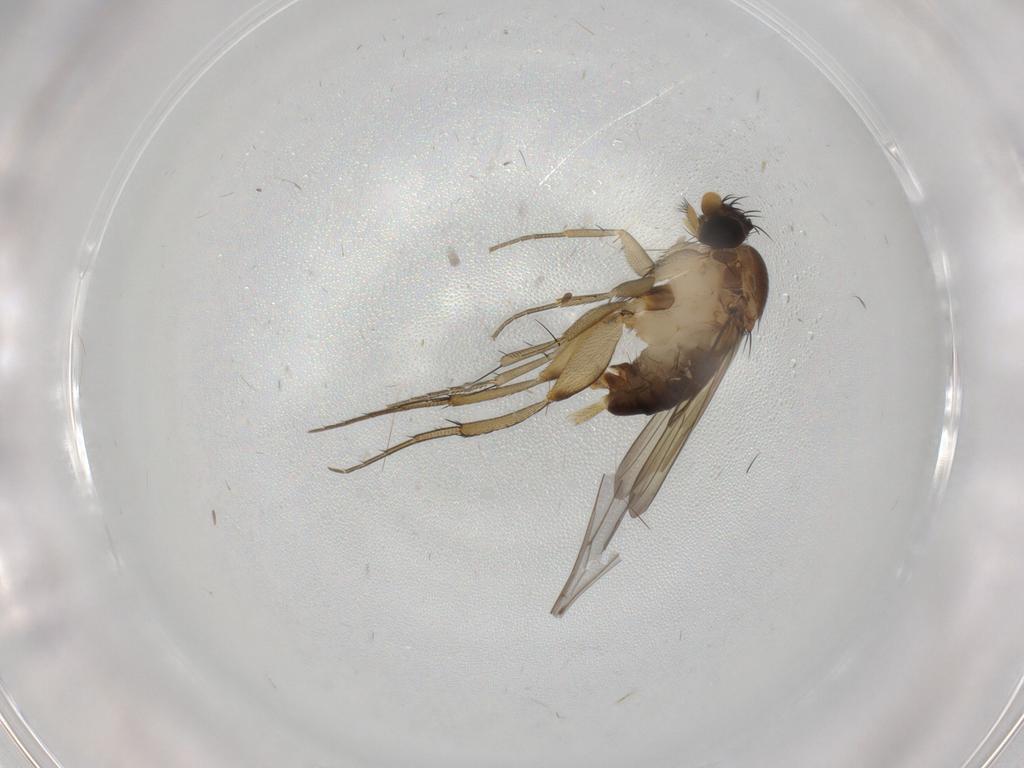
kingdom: Animalia
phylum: Arthropoda
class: Insecta
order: Diptera
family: Phoridae
